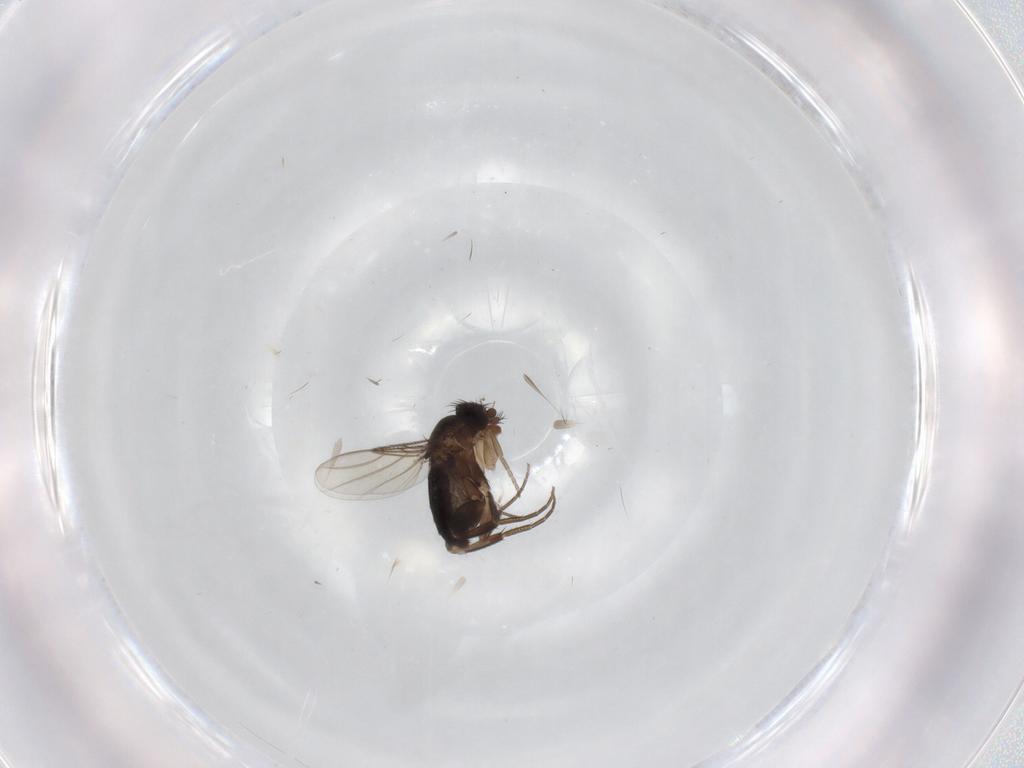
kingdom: Animalia
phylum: Arthropoda
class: Insecta
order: Diptera
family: Phoridae
